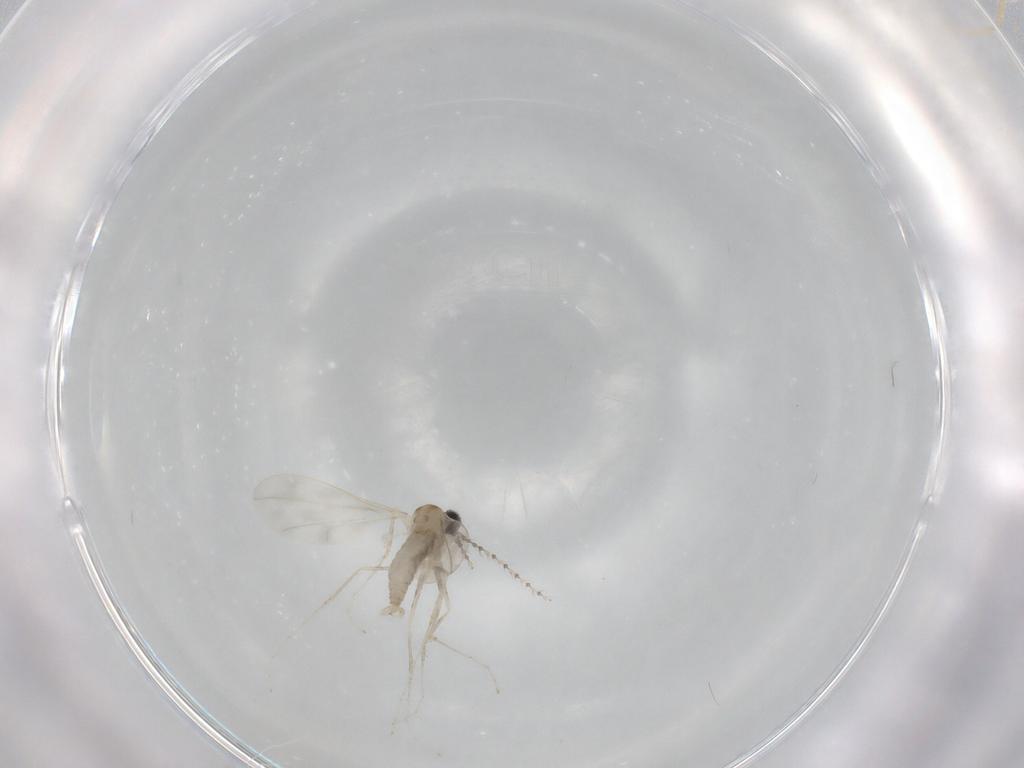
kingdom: Animalia
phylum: Arthropoda
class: Insecta
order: Diptera
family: Cecidomyiidae
